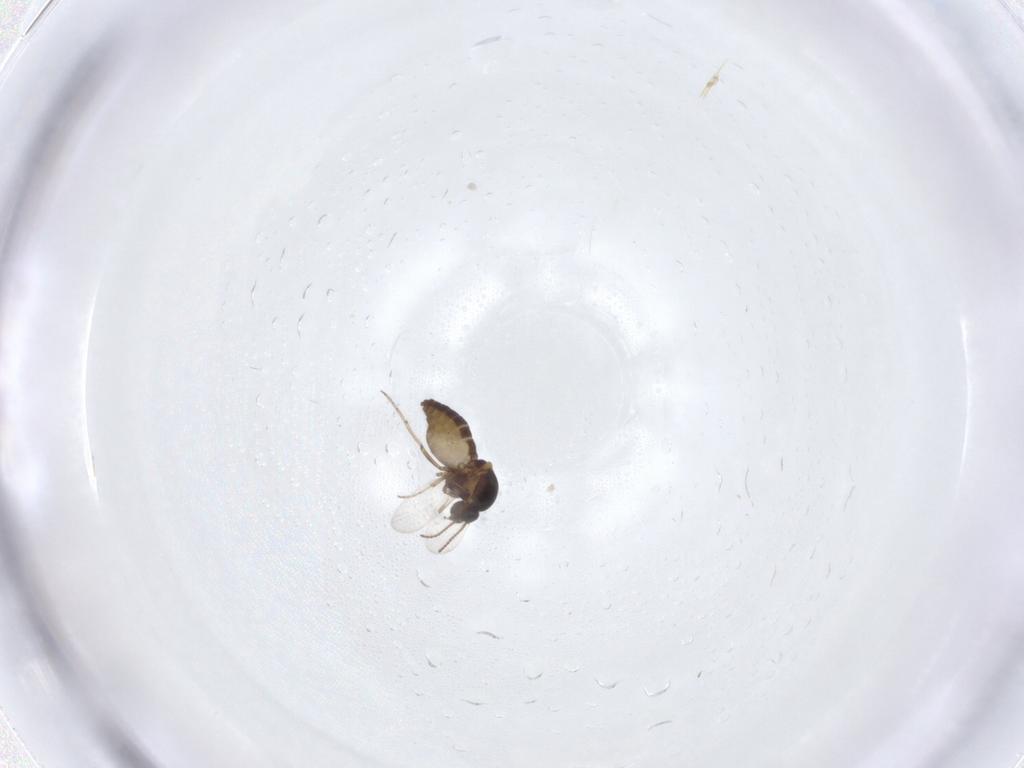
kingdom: Animalia
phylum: Arthropoda
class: Insecta
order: Diptera
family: Ceratopogonidae
